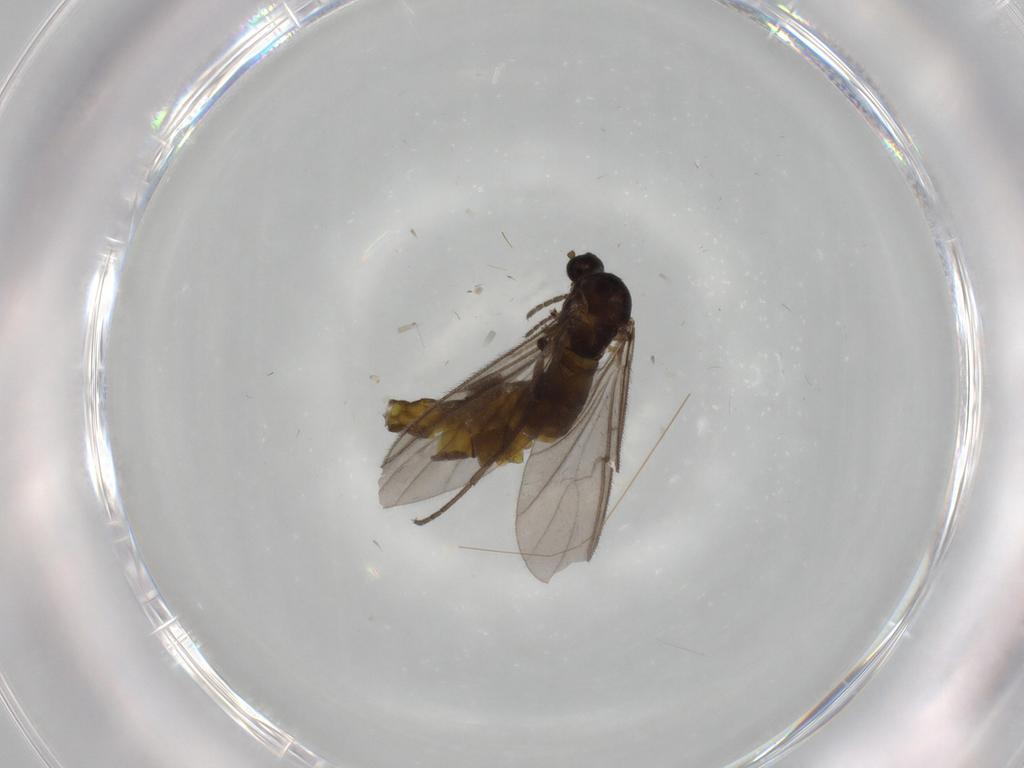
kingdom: Animalia
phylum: Arthropoda
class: Insecta
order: Diptera
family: Sciaridae
